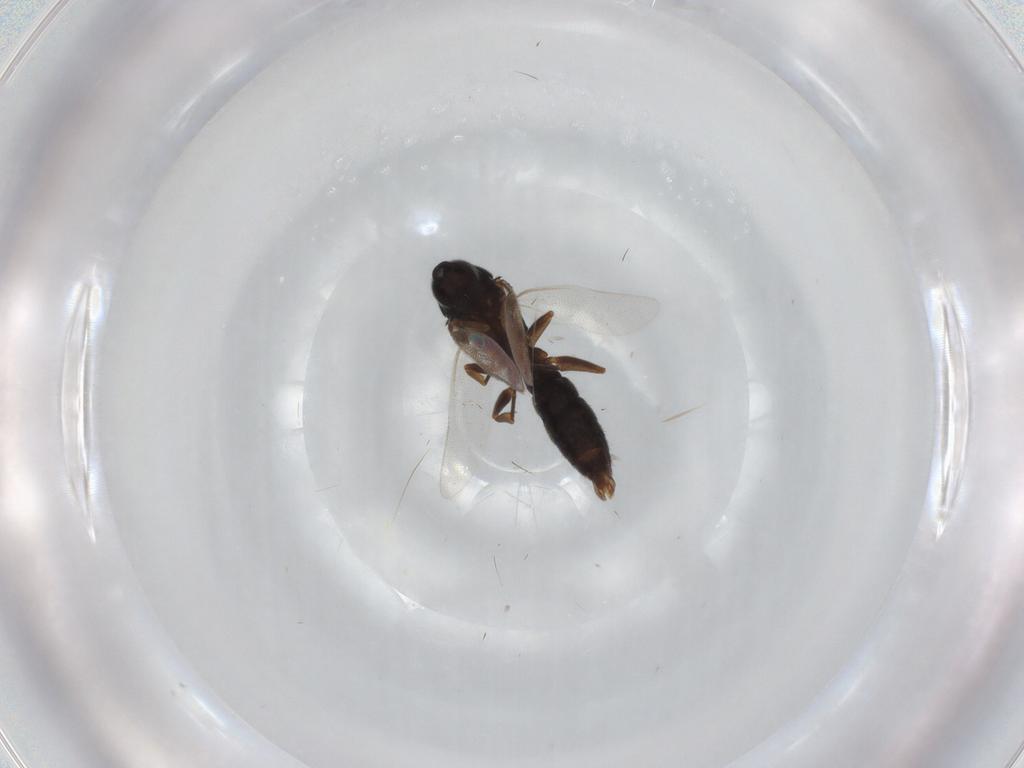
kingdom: Animalia
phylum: Arthropoda
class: Insecta
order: Hymenoptera
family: Formicidae
